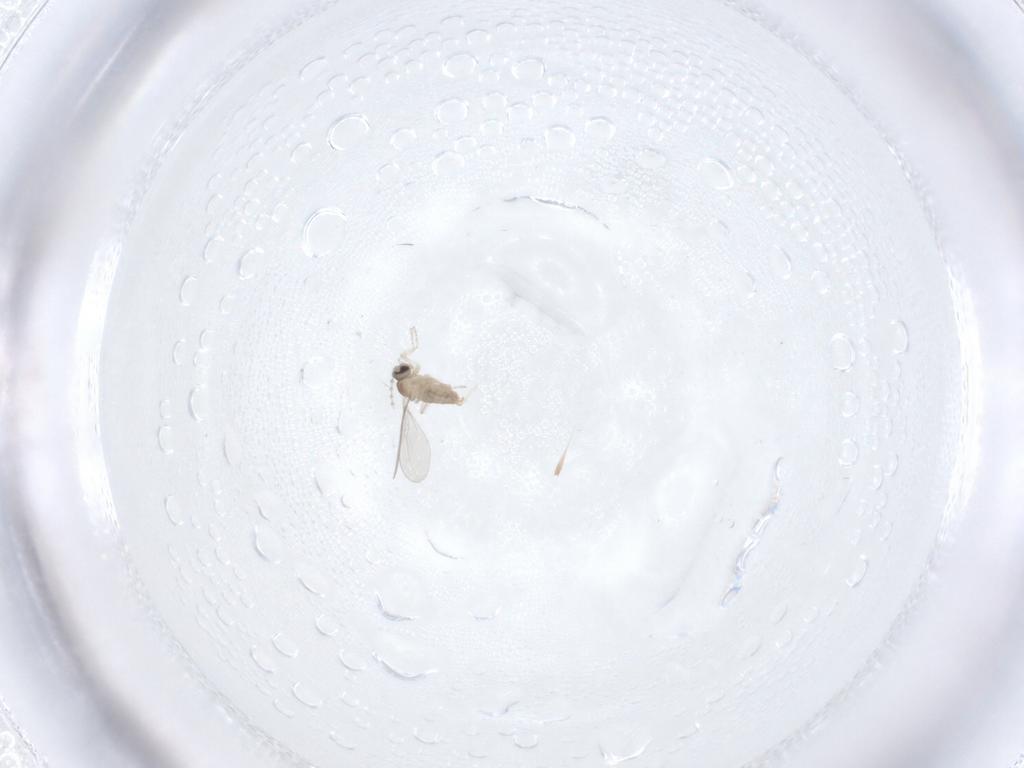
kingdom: Animalia
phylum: Arthropoda
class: Insecta
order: Diptera
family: Cecidomyiidae
